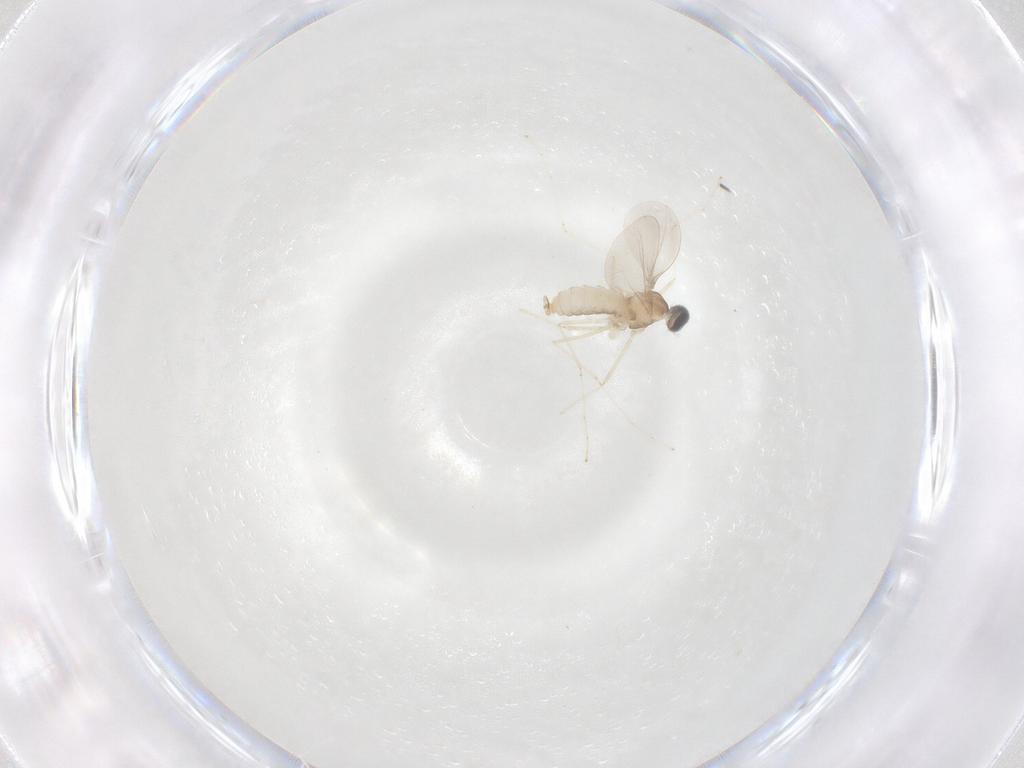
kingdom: Animalia
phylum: Arthropoda
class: Insecta
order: Diptera
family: Cecidomyiidae
